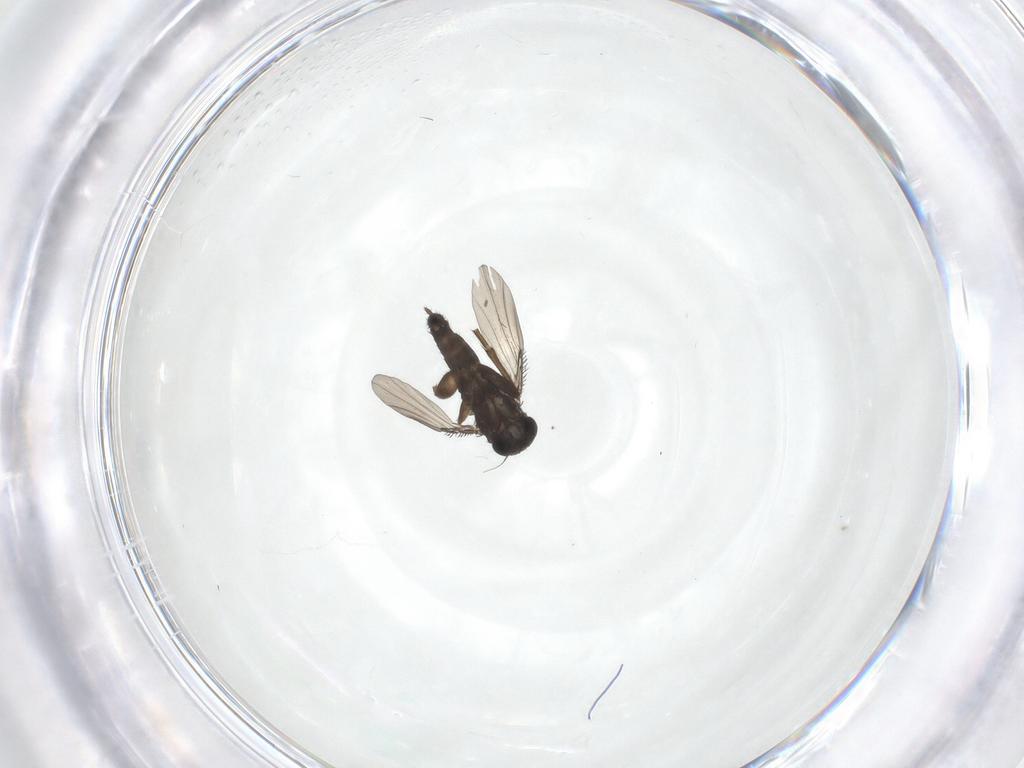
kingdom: Animalia
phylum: Arthropoda
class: Insecta
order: Diptera
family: Phoridae
